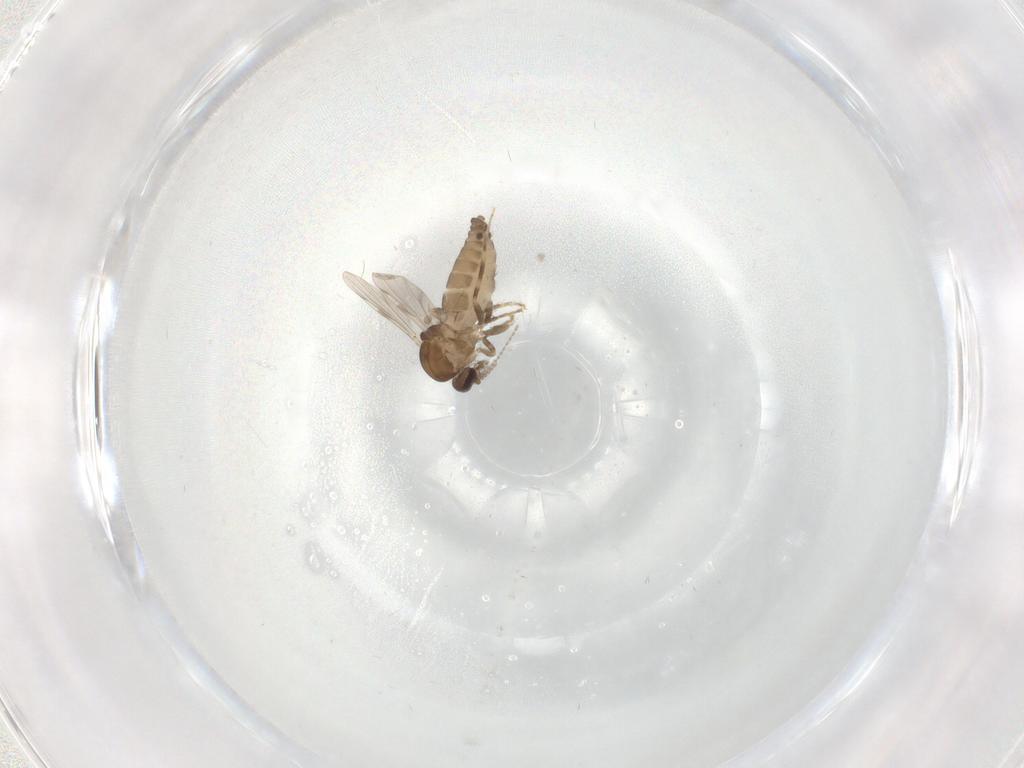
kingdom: Animalia
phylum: Arthropoda
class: Insecta
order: Diptera
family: Ceratopogonidae
